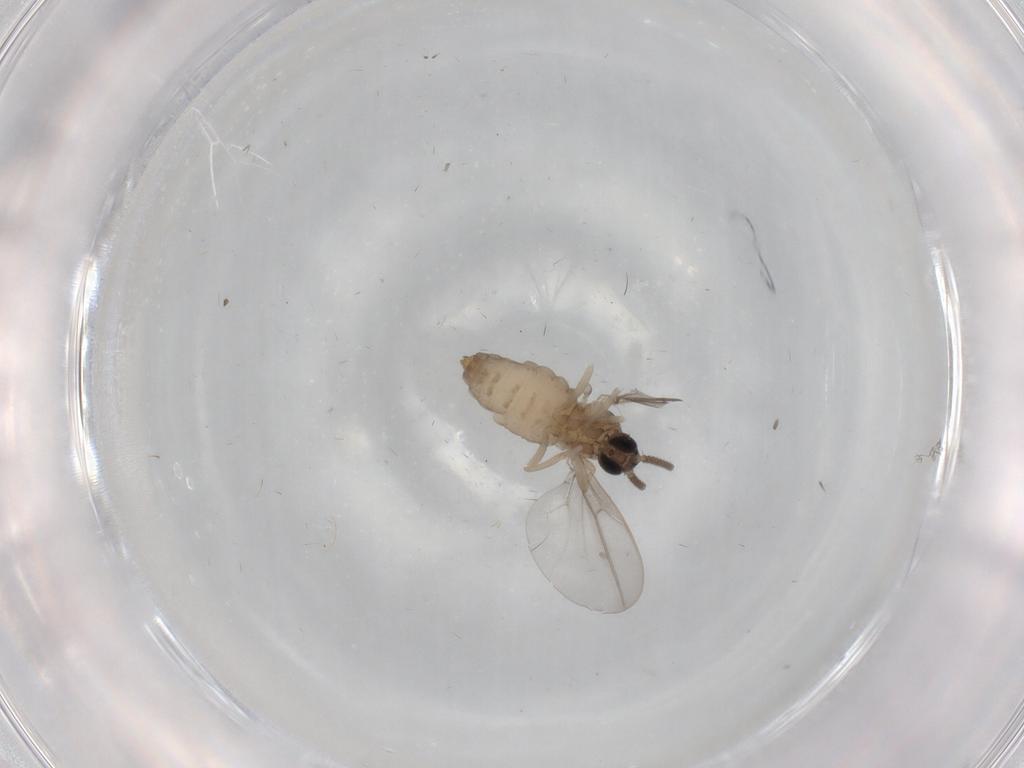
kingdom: Animalia
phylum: Arthropoda
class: Insecta
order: Diptera
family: Cecidomyiidae
